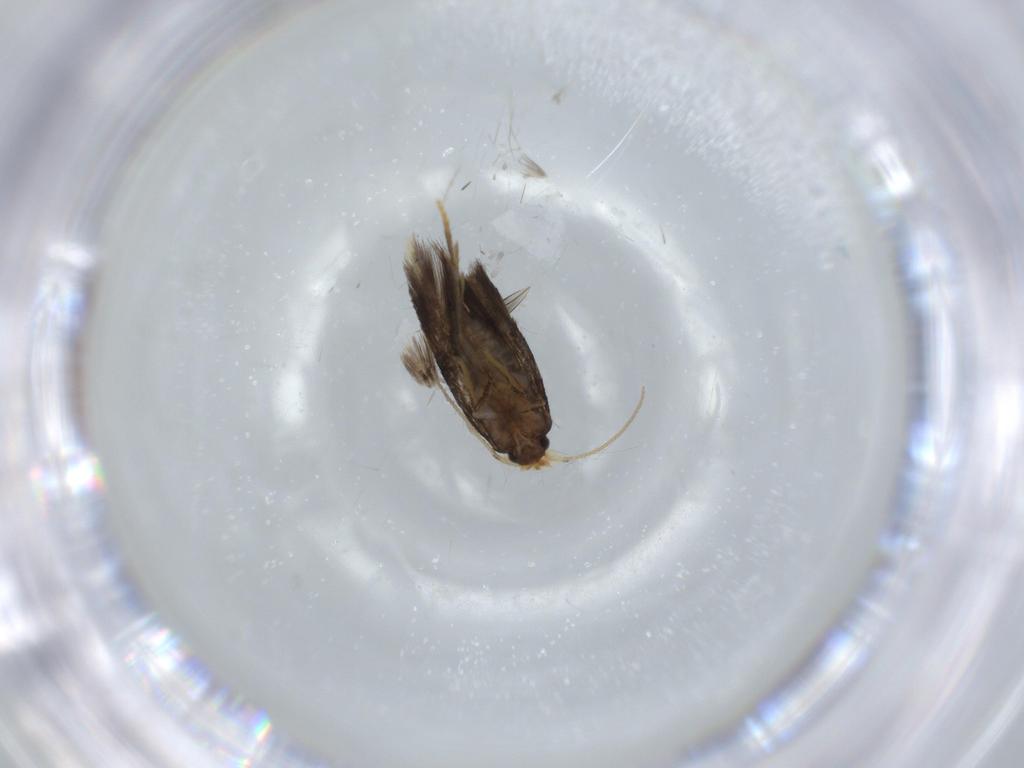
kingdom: Animalia
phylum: Arthropoda
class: Insecta
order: Lepidoptera
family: Nepticulidae
